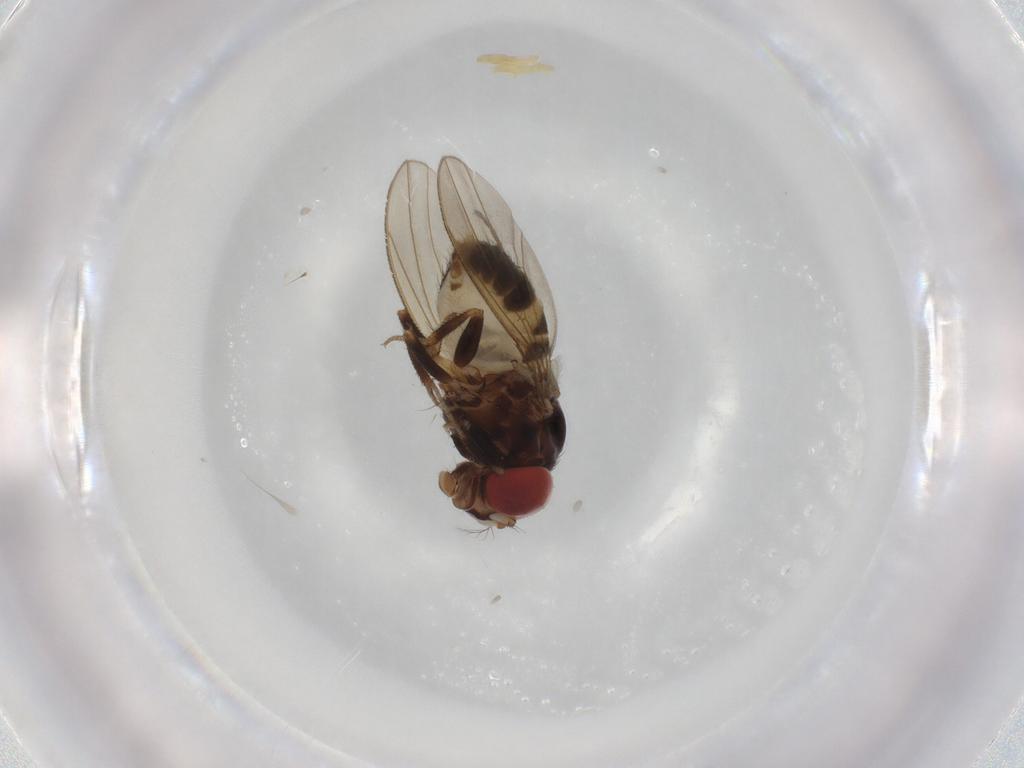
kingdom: Animalia
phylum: Arthropoda
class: Insecta
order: Diptera
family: Drosophilidae
